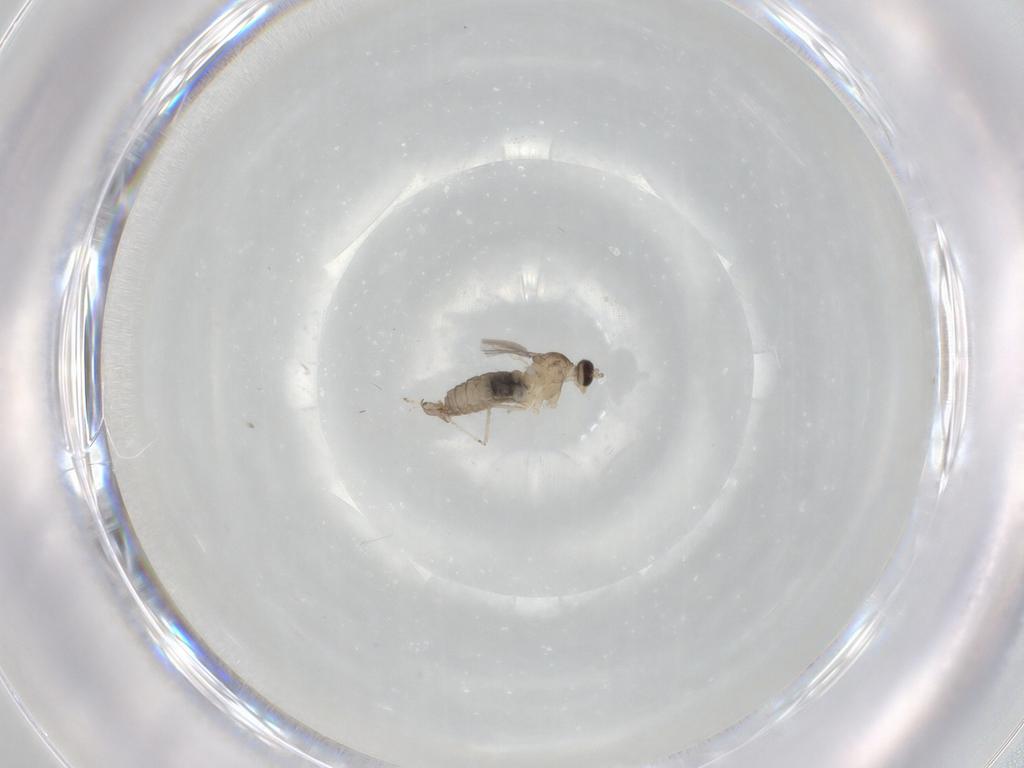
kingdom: Animalia
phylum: Arthropoda
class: Insecta
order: Diptera
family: Cecidomyiidae
